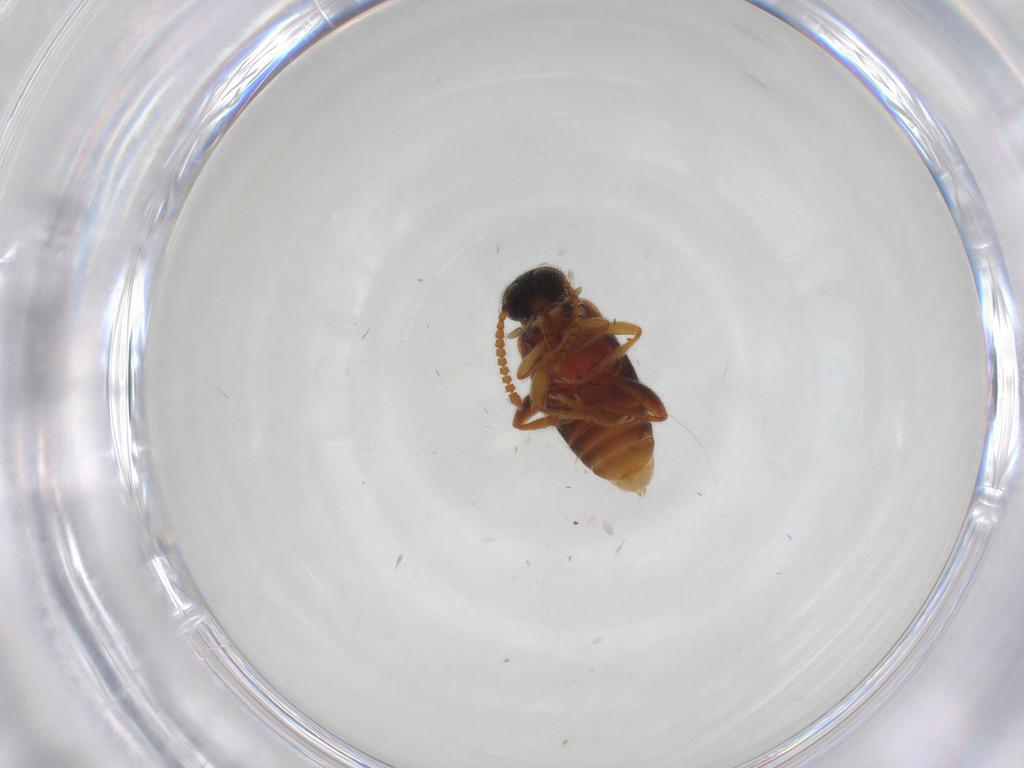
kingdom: Animalia
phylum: Arthropoda
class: Insecta
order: Coleoptera
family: Aderidae
